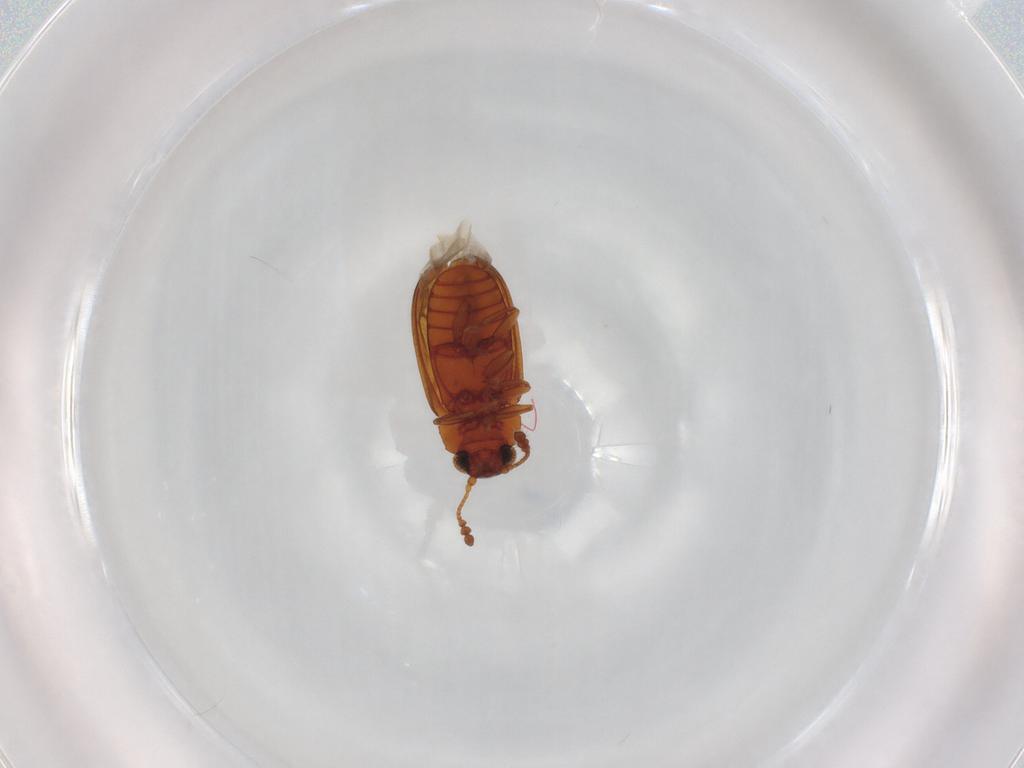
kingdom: Animalia
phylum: Arthropoda
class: Insecta
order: Coleoptera
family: Erotylidae
